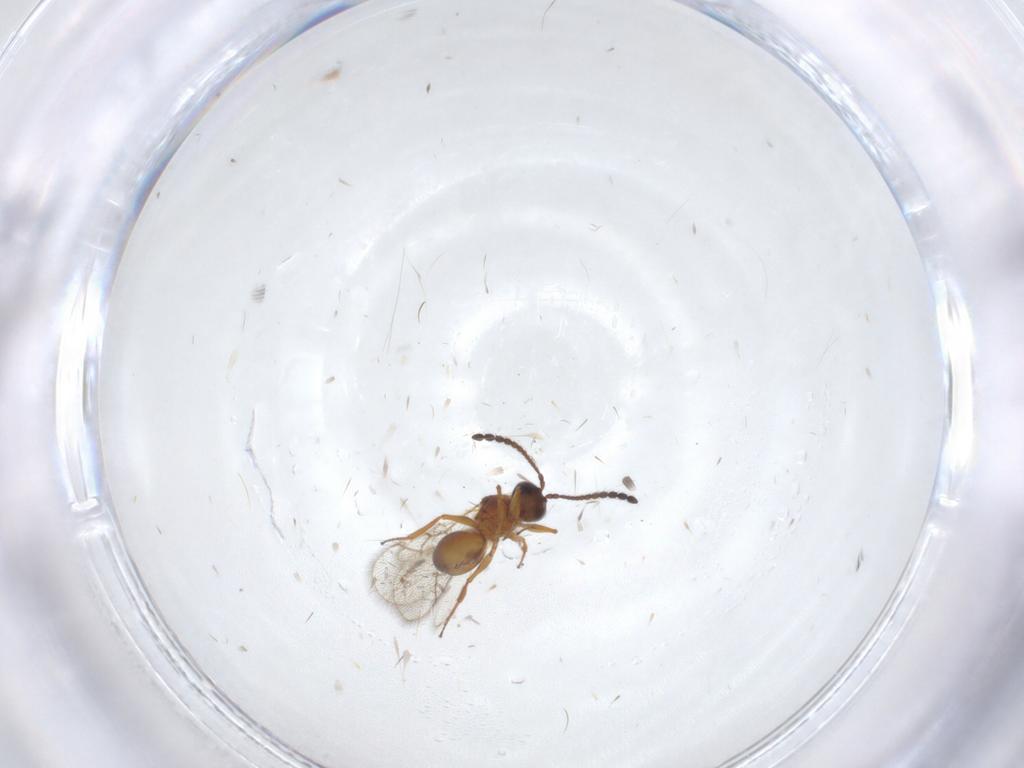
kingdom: Animalia
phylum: Arthropoda
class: Insecta
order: Hymenoptera
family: Figitidae
